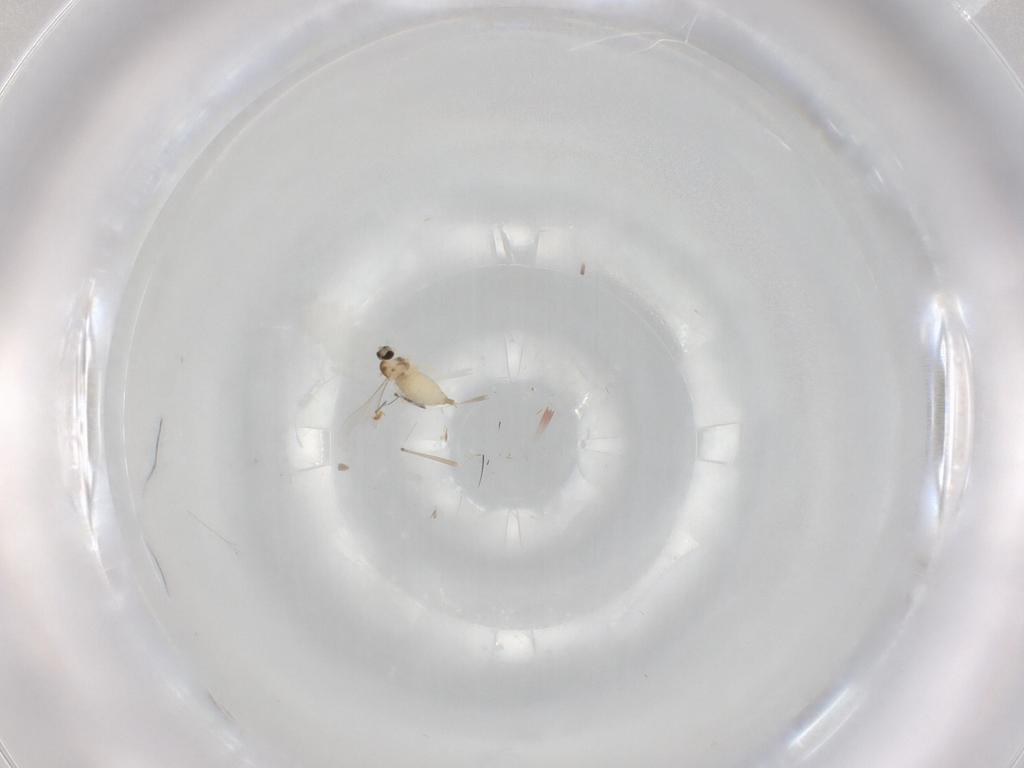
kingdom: Animalia
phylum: Arthropoda
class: Insecta
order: Diptera
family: Cecidomyiidae
